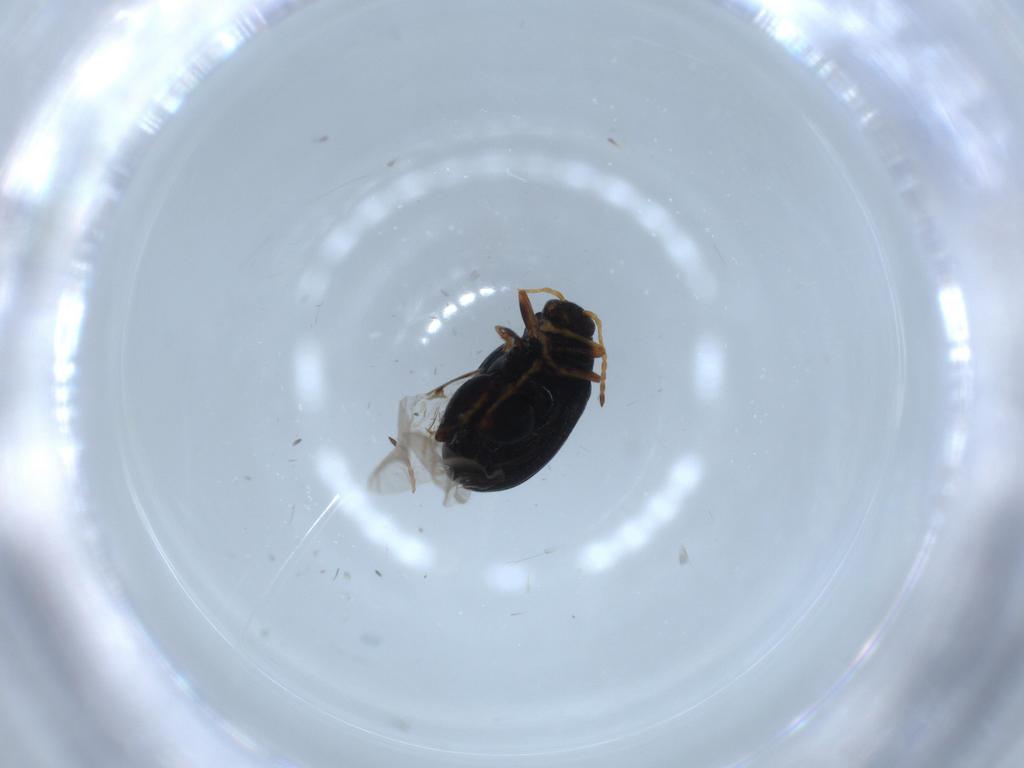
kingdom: Animalia
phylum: Arthropoda
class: Insecta
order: Coleoptera
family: Chrysomelidae
